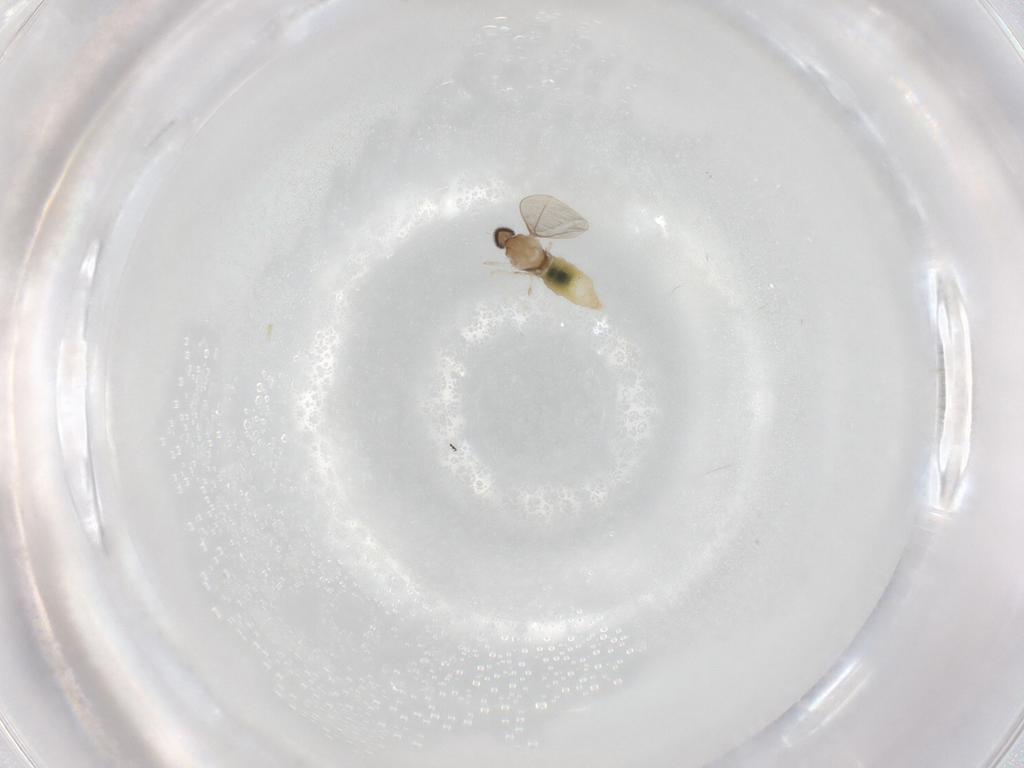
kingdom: Animalia
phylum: Arthropoda
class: Insecta
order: Diptera
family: Cecidomyiidae
